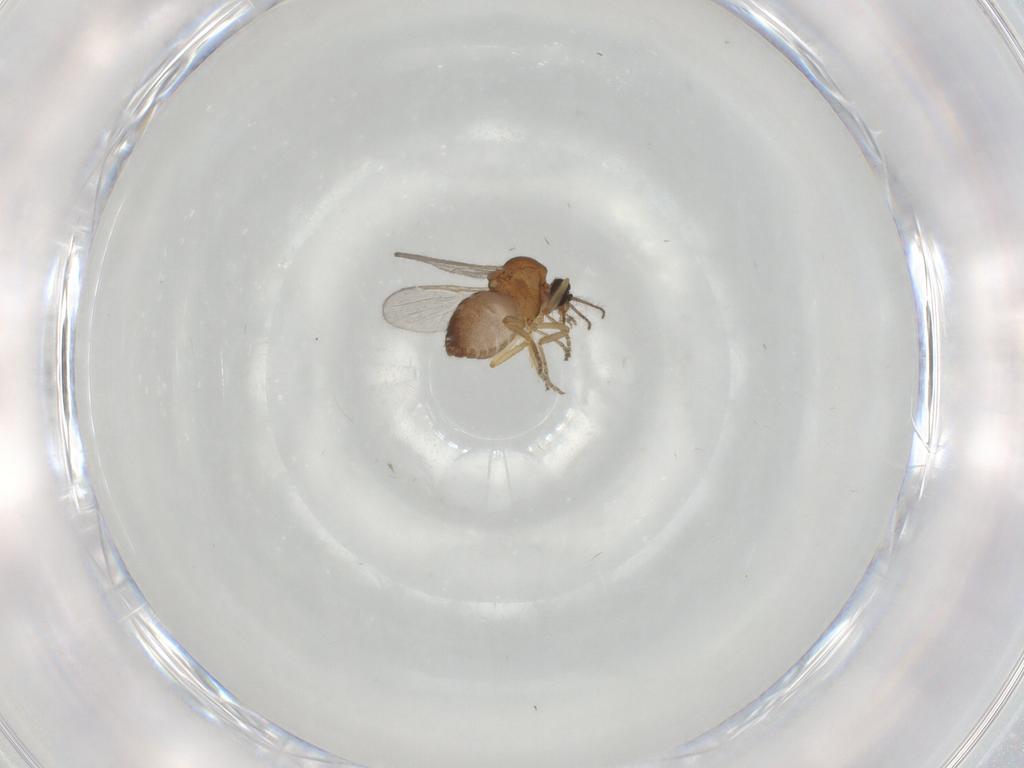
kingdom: Animalia
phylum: Arthropoda
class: Insecta
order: Diptera
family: Ceratopogonidae
